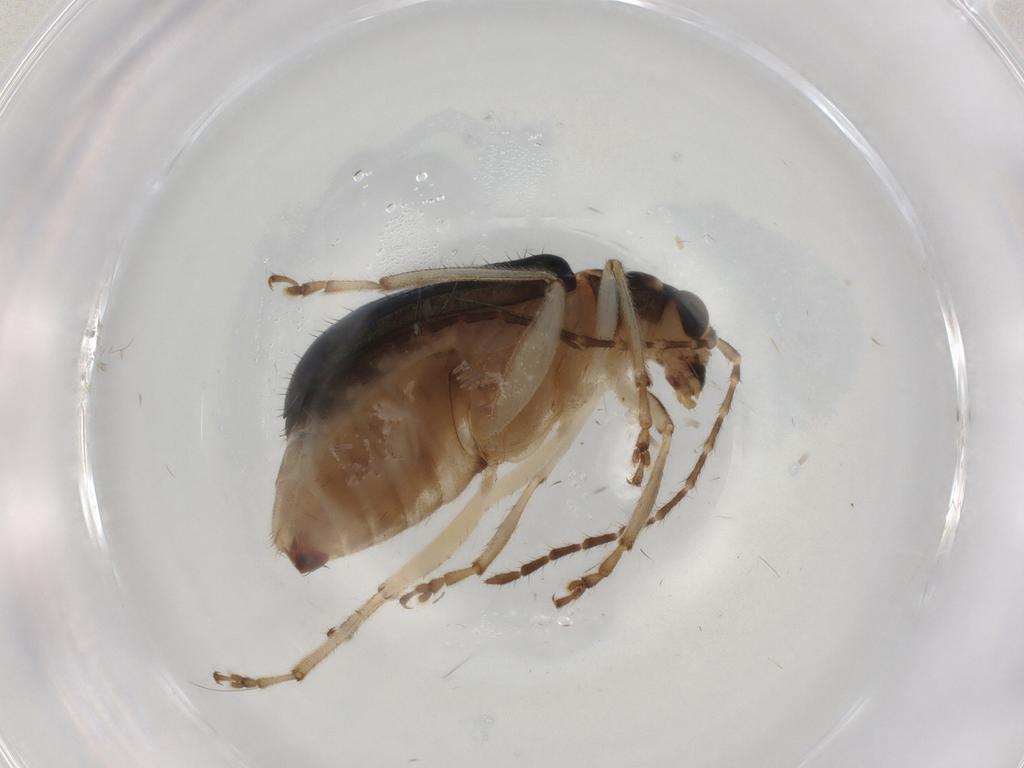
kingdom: Animalia
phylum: Arthropoda
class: Insecta
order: Coleoptera
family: Chrysomelidae
